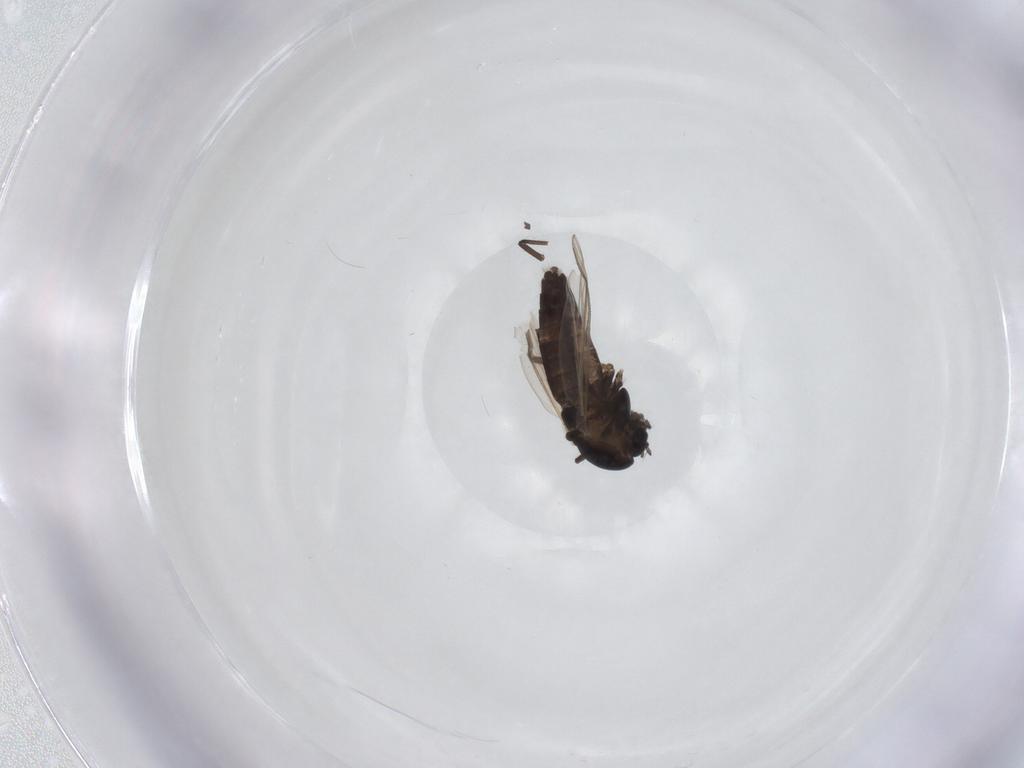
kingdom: Animalia
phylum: Arthropoda
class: Insecta
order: Diptera
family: Chironomidae
